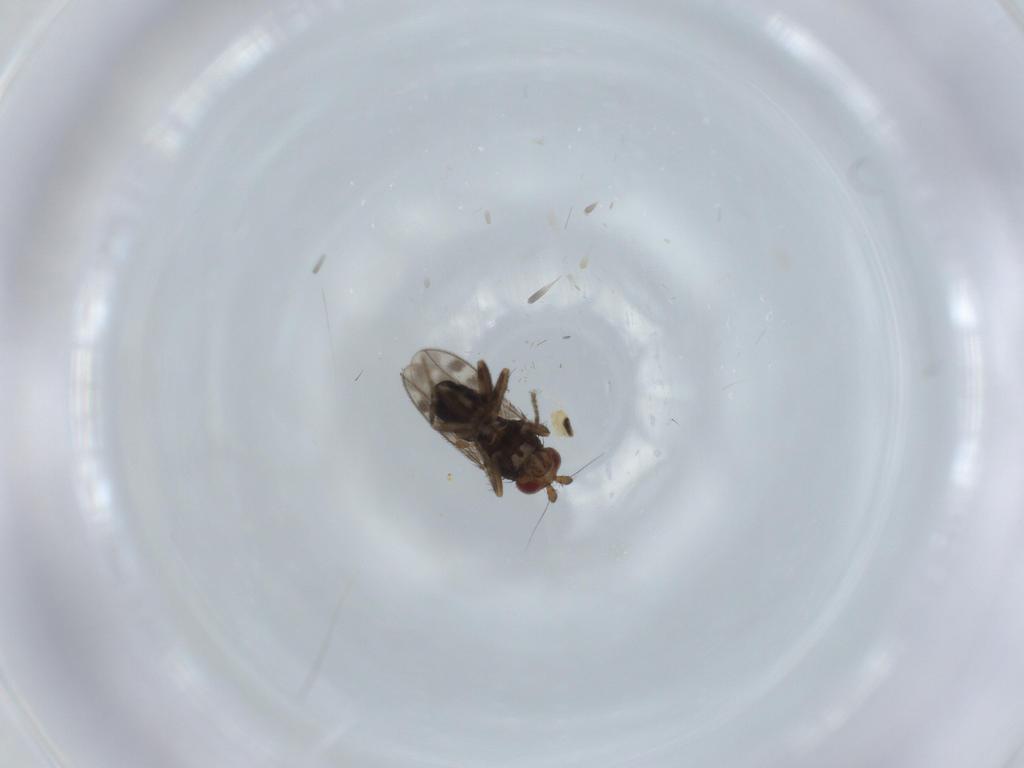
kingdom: Animalia
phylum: Arthropoda
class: Insecta
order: Diptera
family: Sphaeroceridae
